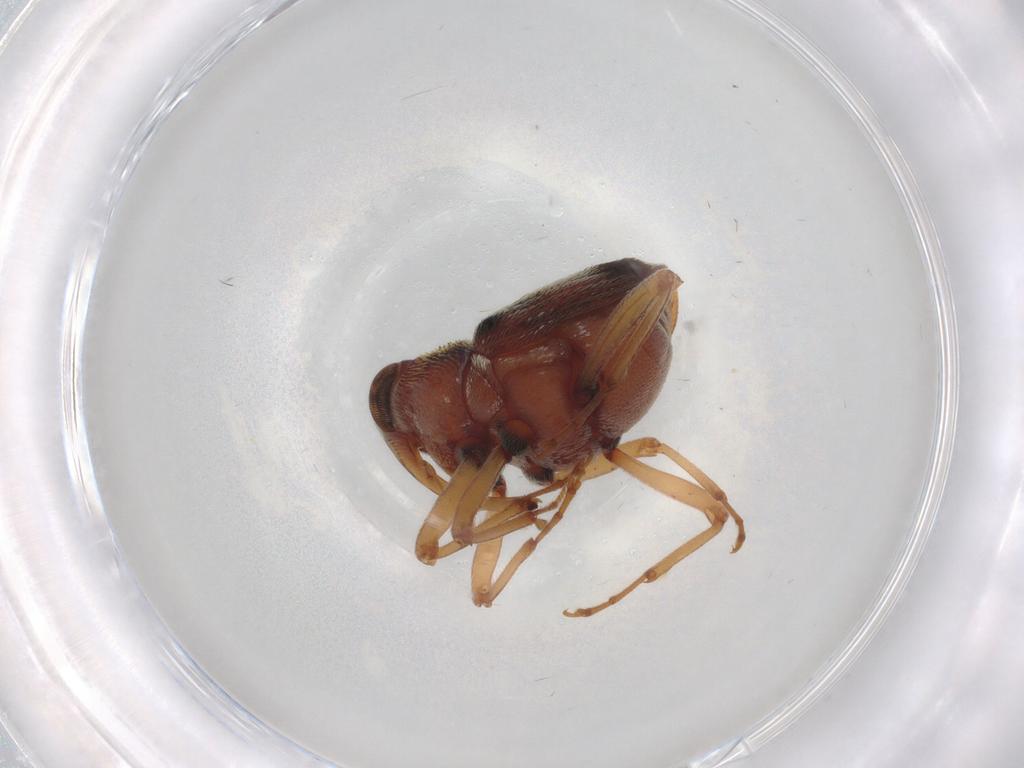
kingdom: Animalia
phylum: Arthropoda
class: Insecta
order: Coleoptera
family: Curculionidae
